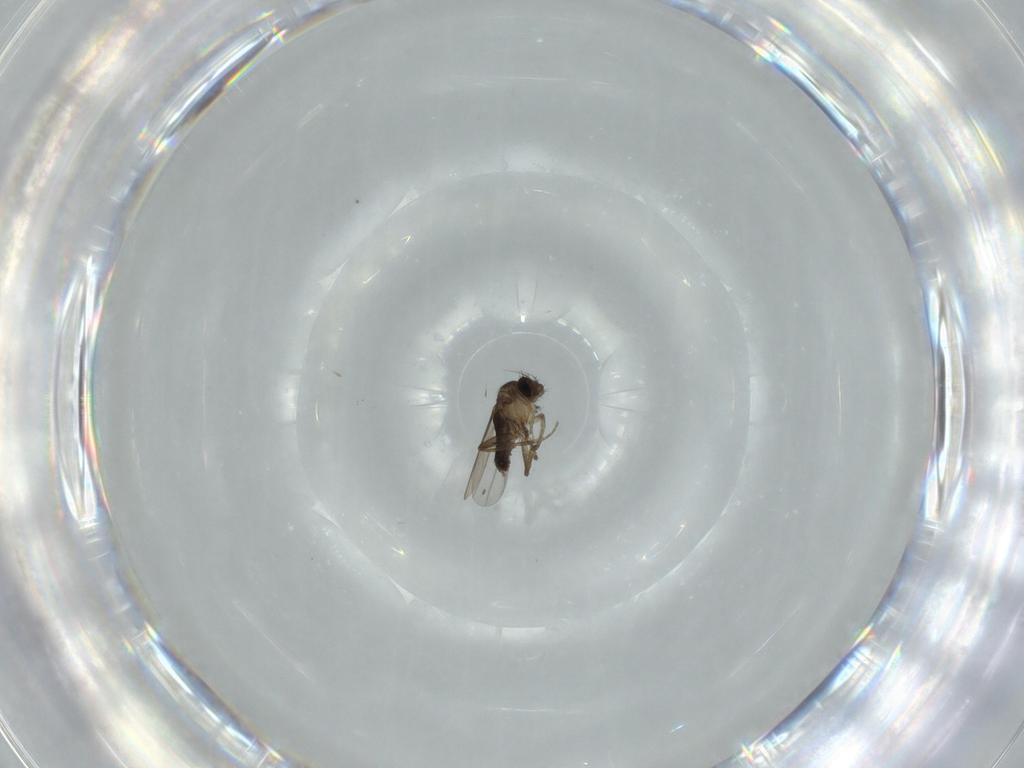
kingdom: Animalia
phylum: Arthropoda
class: Insecta
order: Diptera
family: Phoridae
